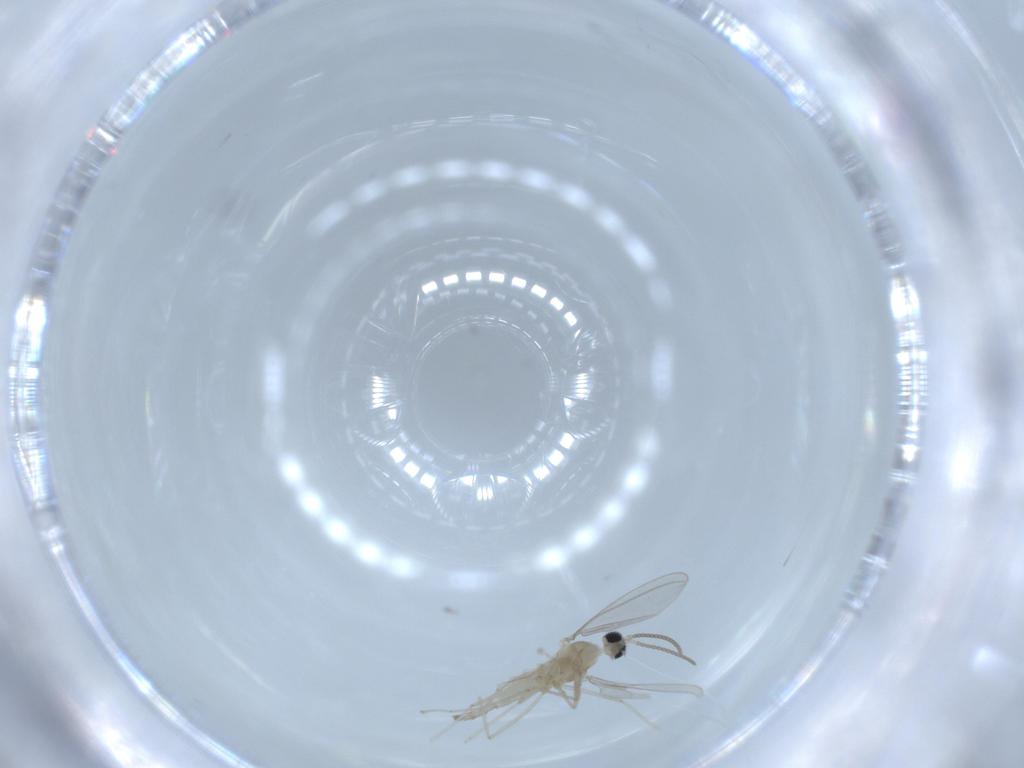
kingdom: Animalia
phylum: Arthropoda
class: Insecta
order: Diptera
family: Cecidomyiidae
